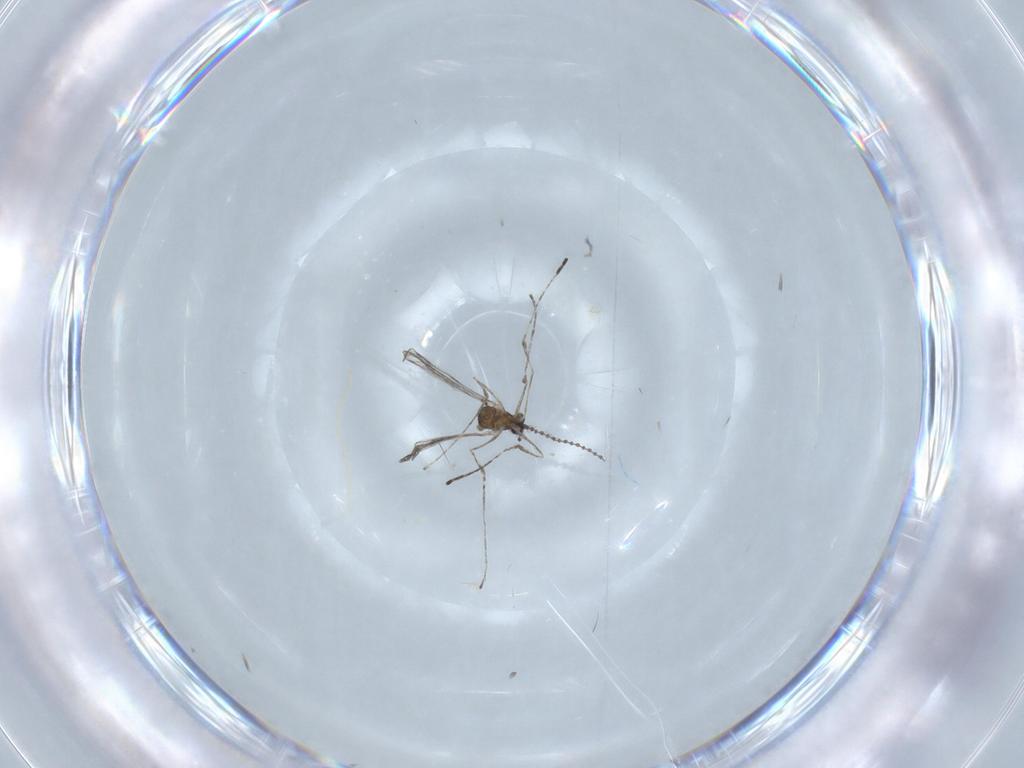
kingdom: Animalia
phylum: Arthropoda
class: Insecta
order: Diptera
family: Cecidomyiidae
